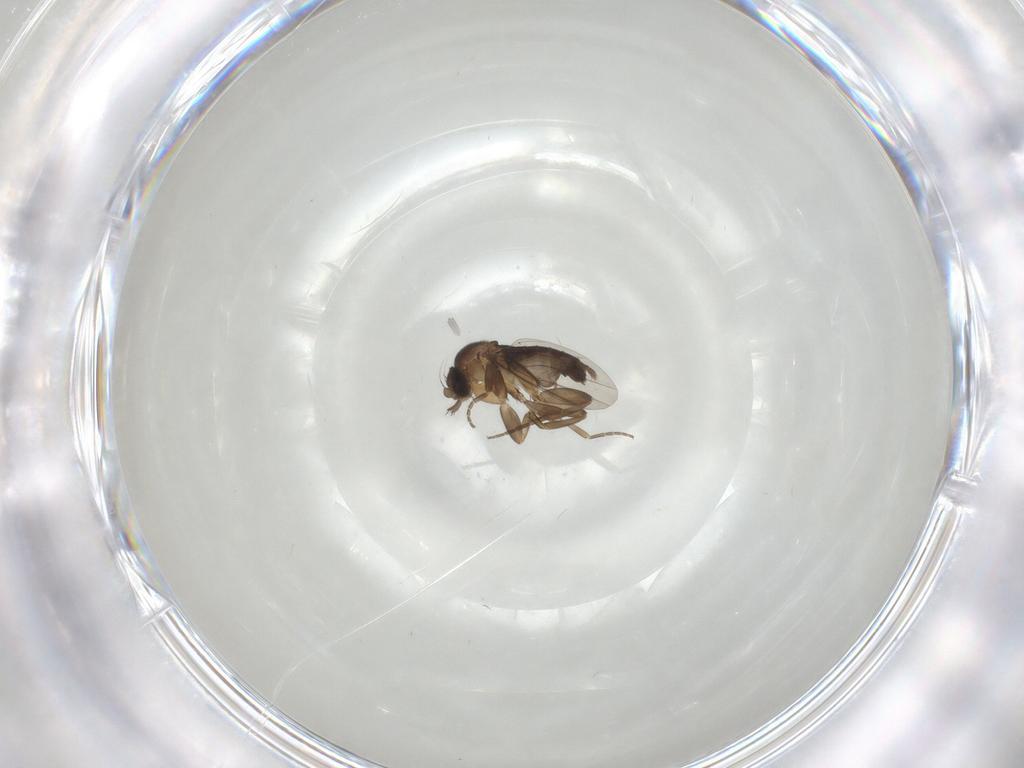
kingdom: Animalia
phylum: Arthropoda
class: Insecta
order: Diptera
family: Phoridae
